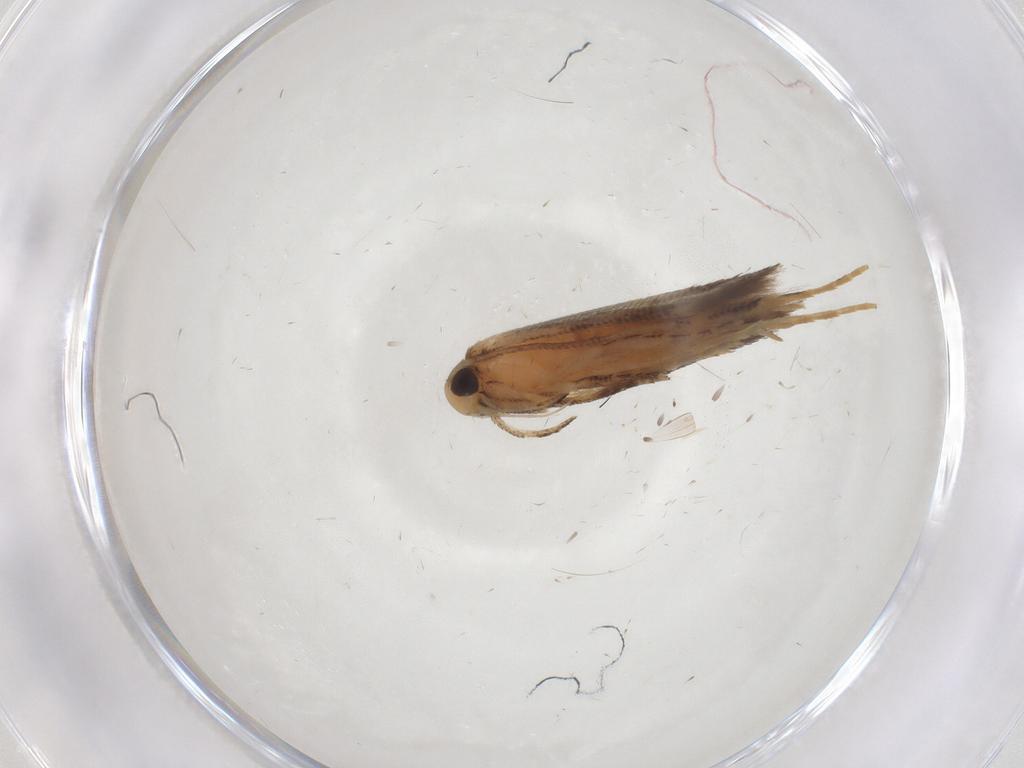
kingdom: Animalia
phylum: Arthropoda
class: Insecta
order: Lepidoptera
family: Cosmopterigidae
